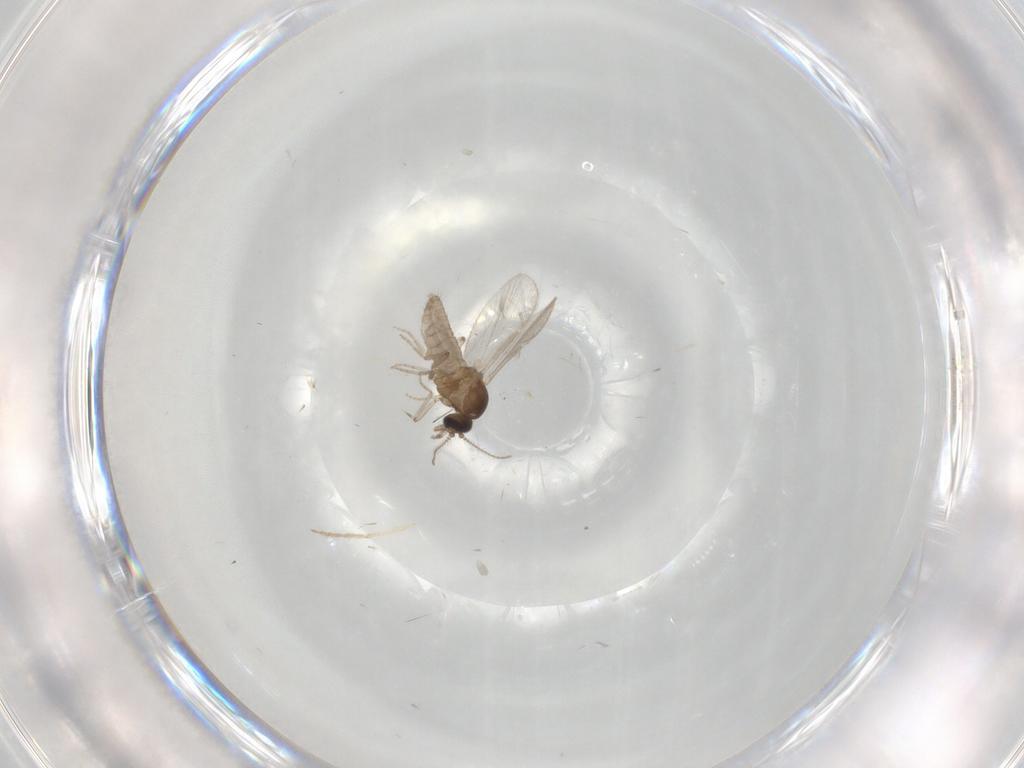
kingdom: Animalia
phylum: Arthropoda
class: Insecta
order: Diptera
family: Ceratopogonidae
